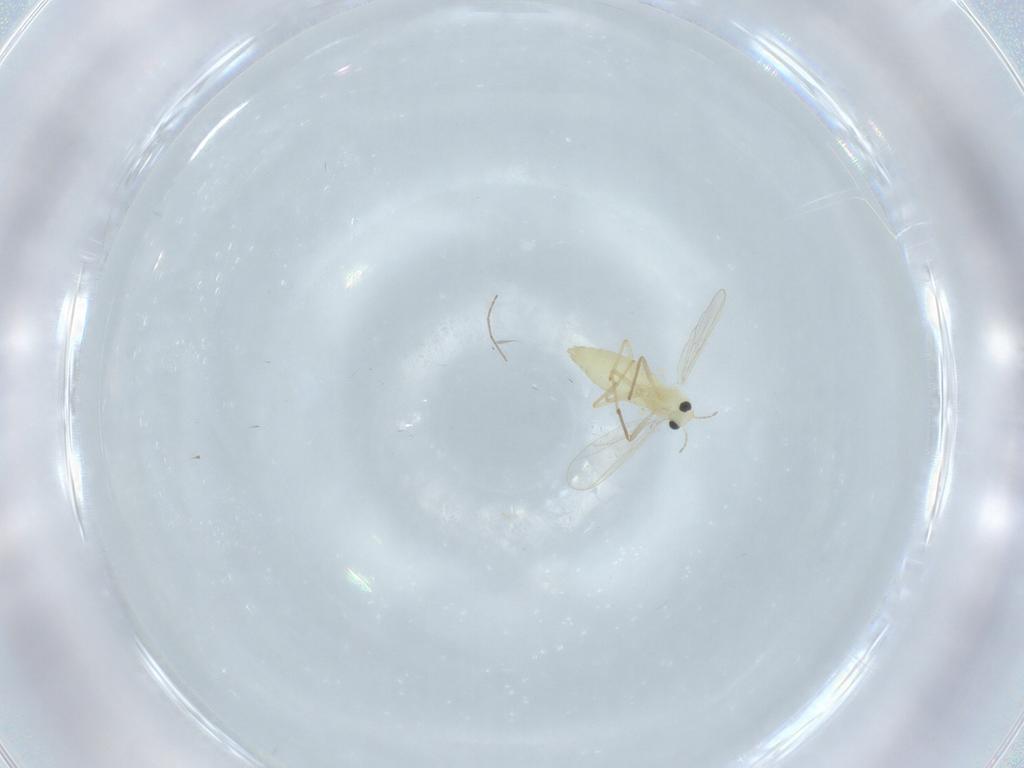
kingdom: Animalia
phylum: Arthropoda
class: Insecta
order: Diptera
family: Chironomidae
